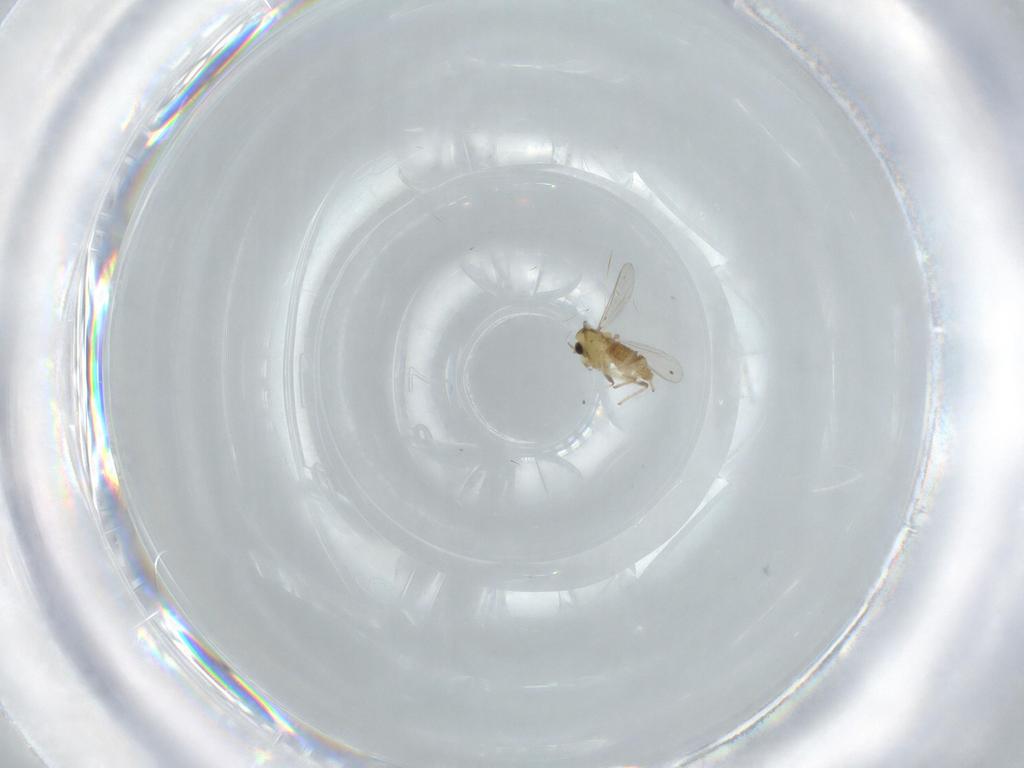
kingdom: Animalia
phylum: Arthropoda
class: Insecta
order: Diptera
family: Chironomidae
